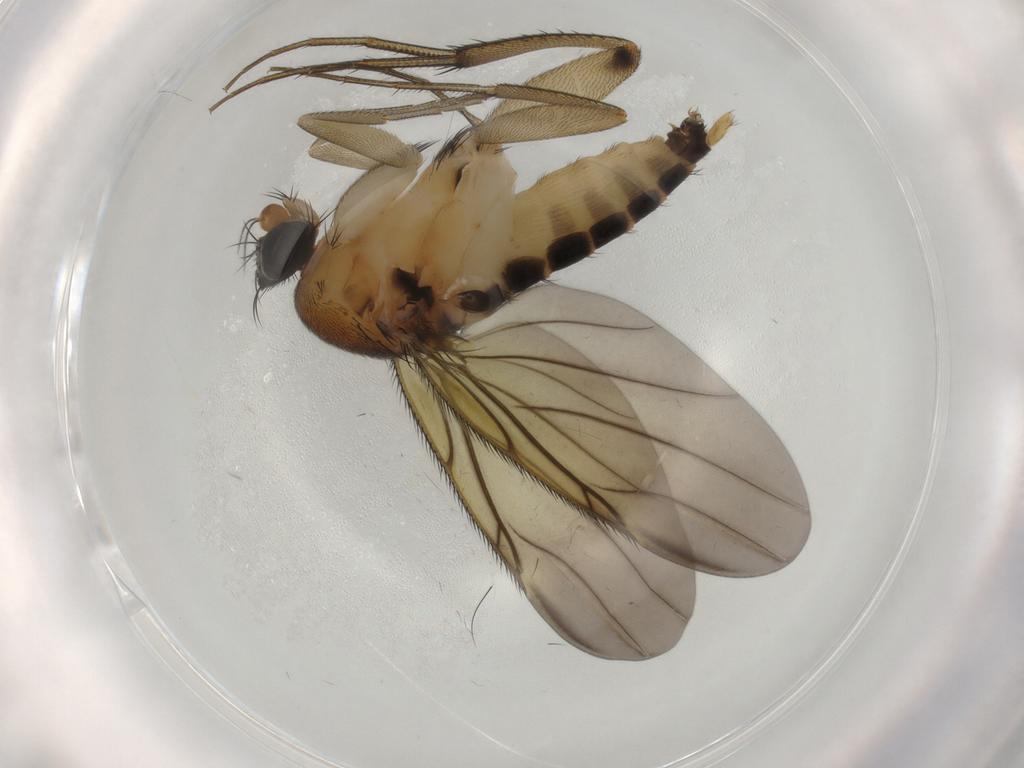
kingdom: Animalia
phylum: Arthropoda
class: Insecta
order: Diptera
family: Phoridae
